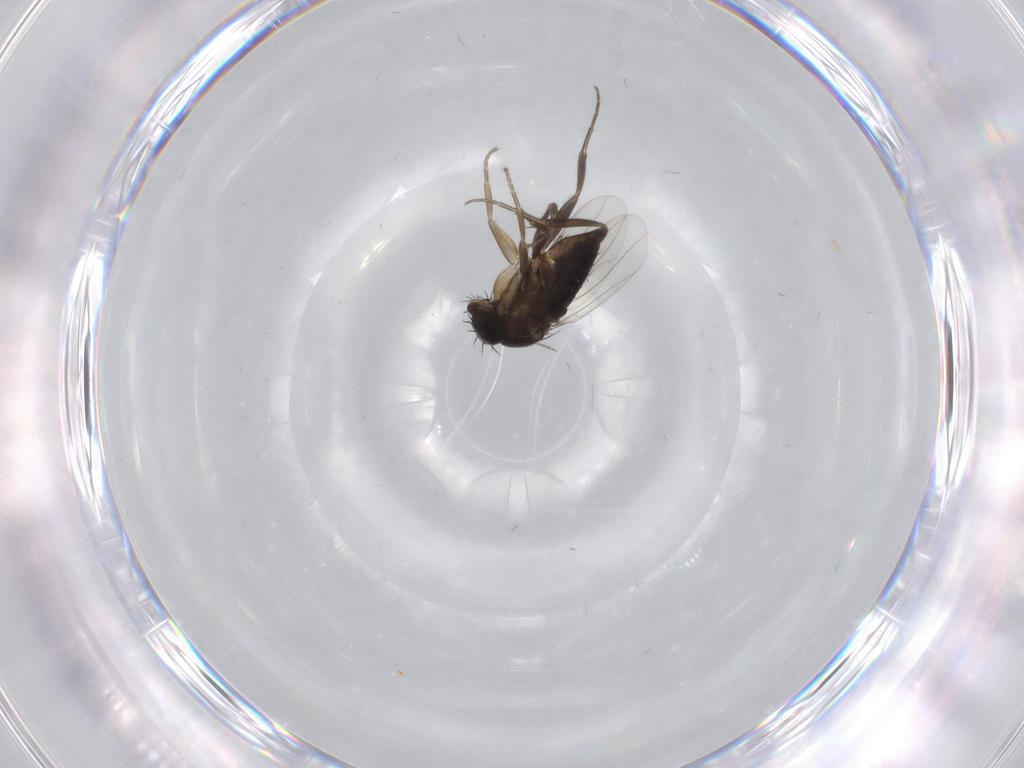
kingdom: Animalia
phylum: Arthropoda
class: Insecta
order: Diptera
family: Phoridae
